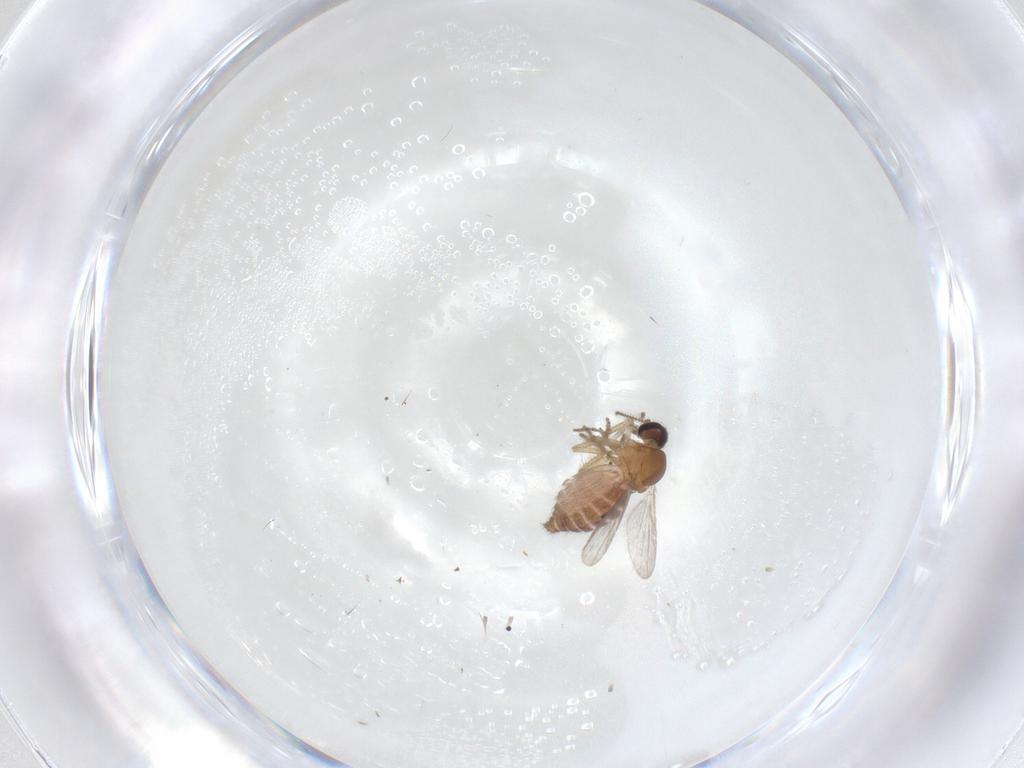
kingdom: Animalia
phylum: Arthropoda
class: Insecta
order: Diptera
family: Ceratopogonidae
